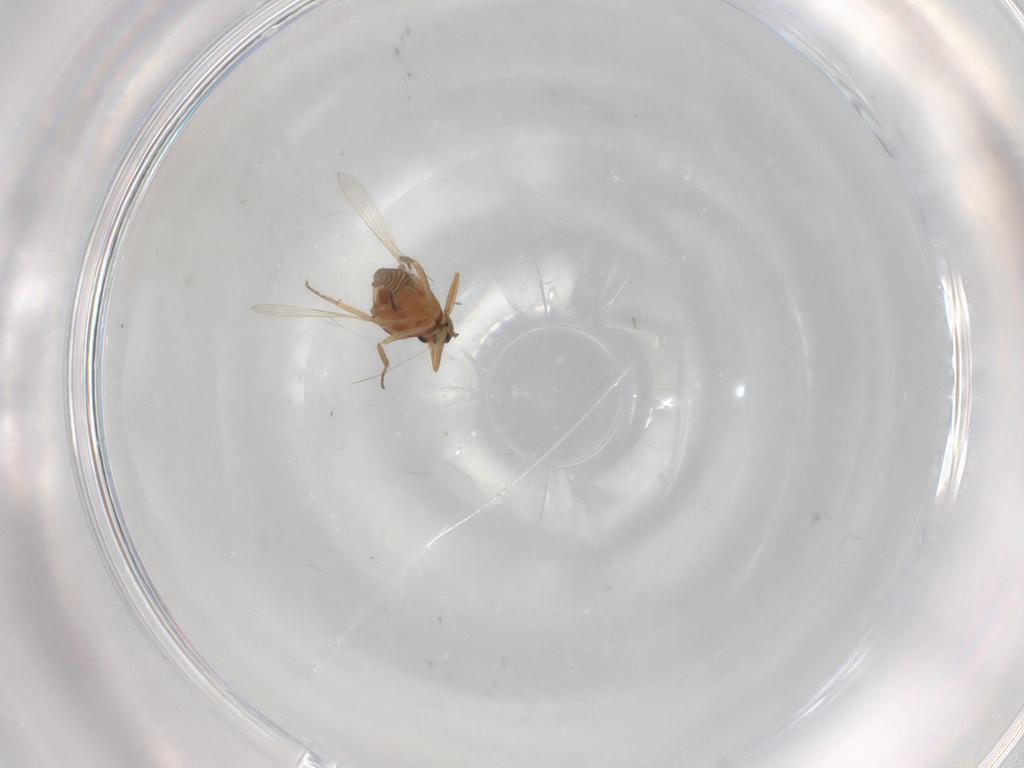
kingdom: Animalia
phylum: Arthropoda
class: Insecta
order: Diptera
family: Ceratopogonidae
